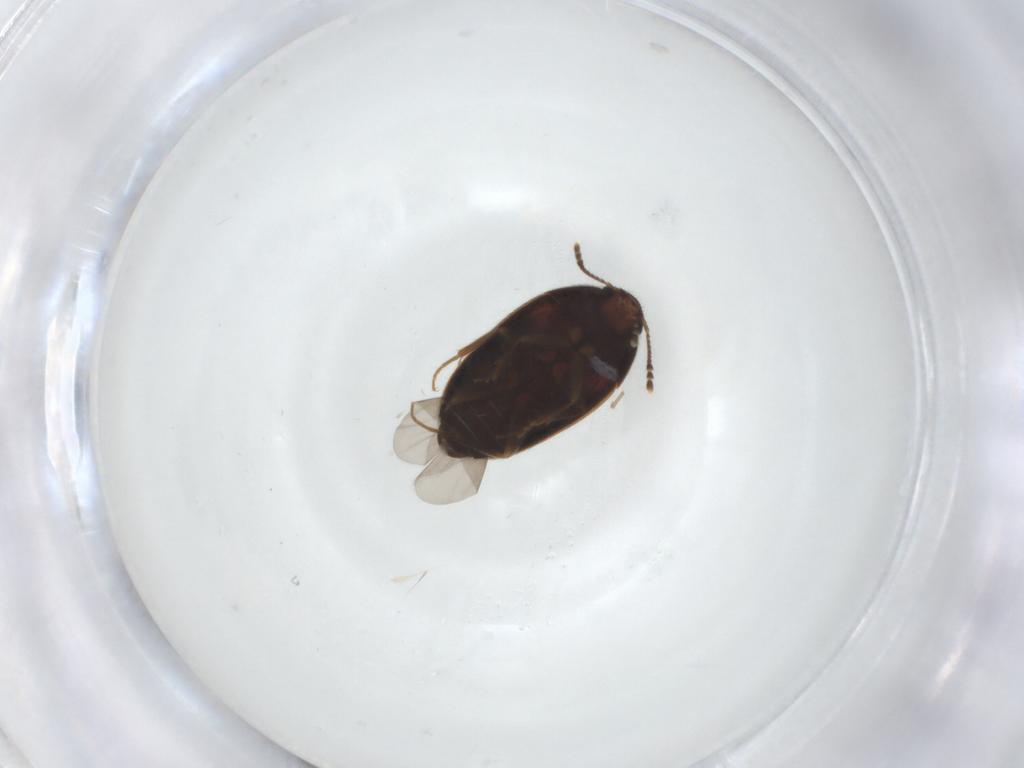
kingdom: Animalia
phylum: Arthropoda
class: Insecta
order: Coleoptera
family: Mycetophagidae
